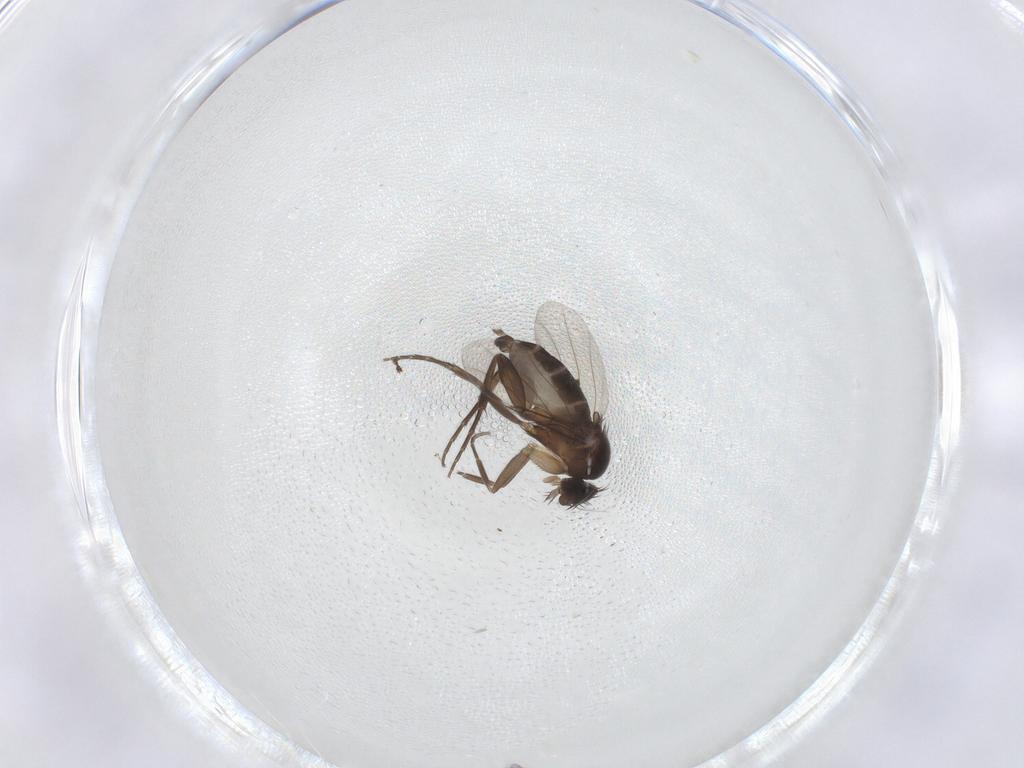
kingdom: Animalia
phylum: Arthropoda
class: Insecta
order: Diptera
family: Phoridae
